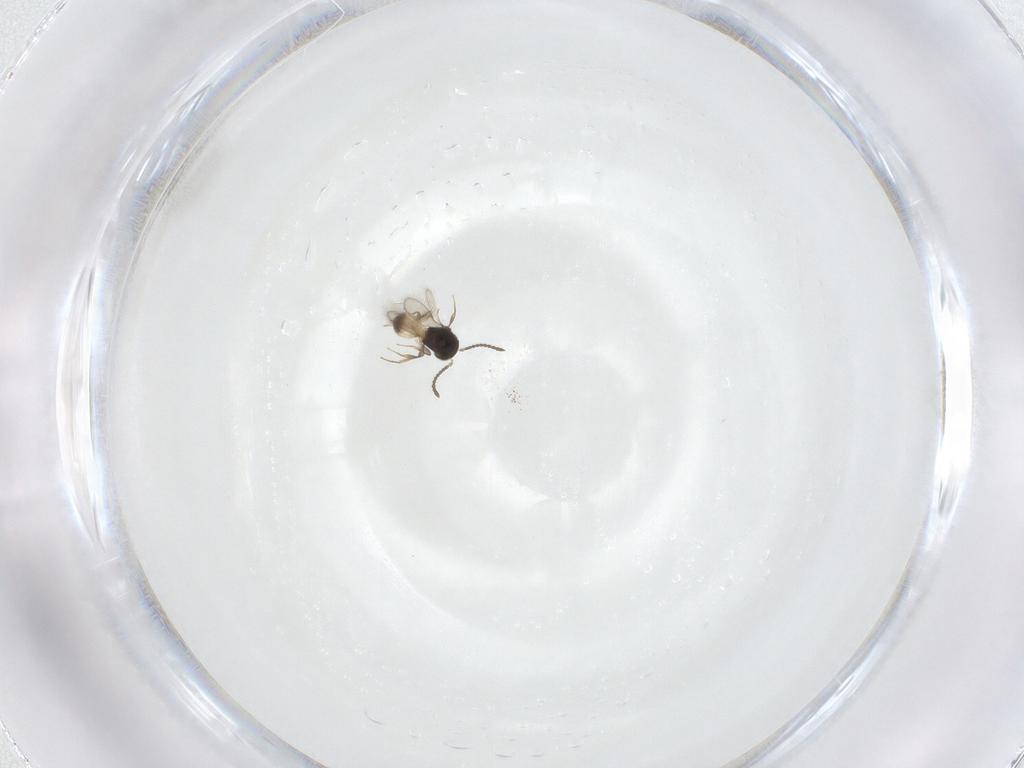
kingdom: Animalia
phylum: Arthropoda
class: Insecta
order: Hymenoptera
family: Scelionidae
